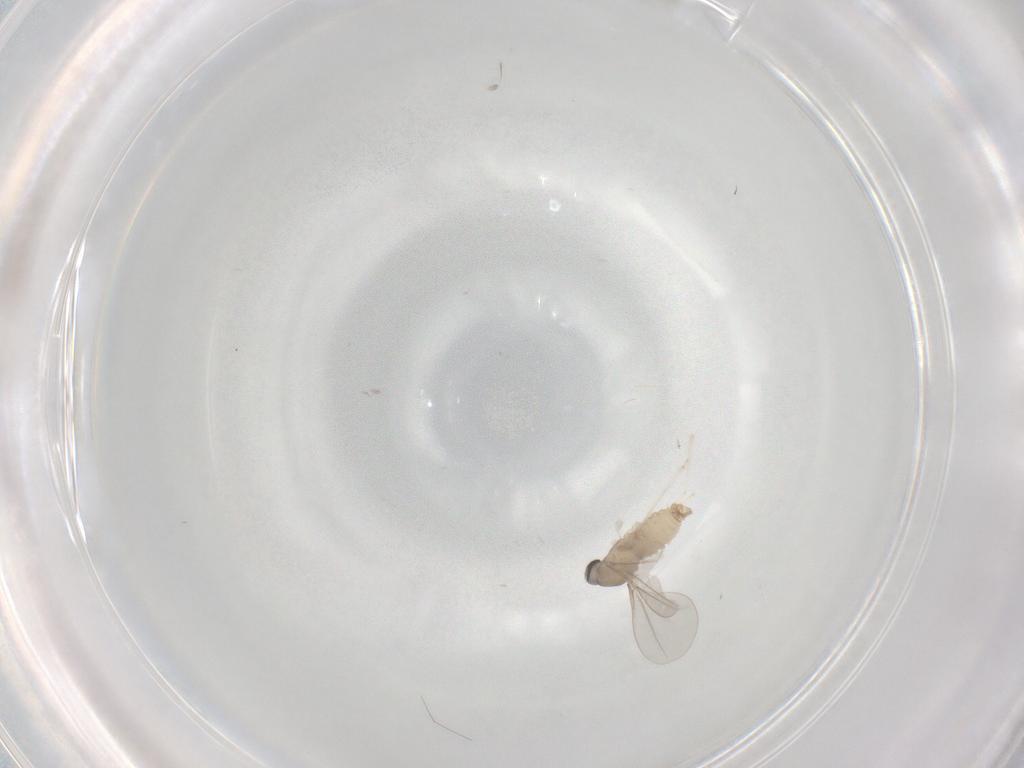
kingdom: Animalia
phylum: Arthropoda
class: Insecta
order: Diptera
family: Cecidomyiidae
